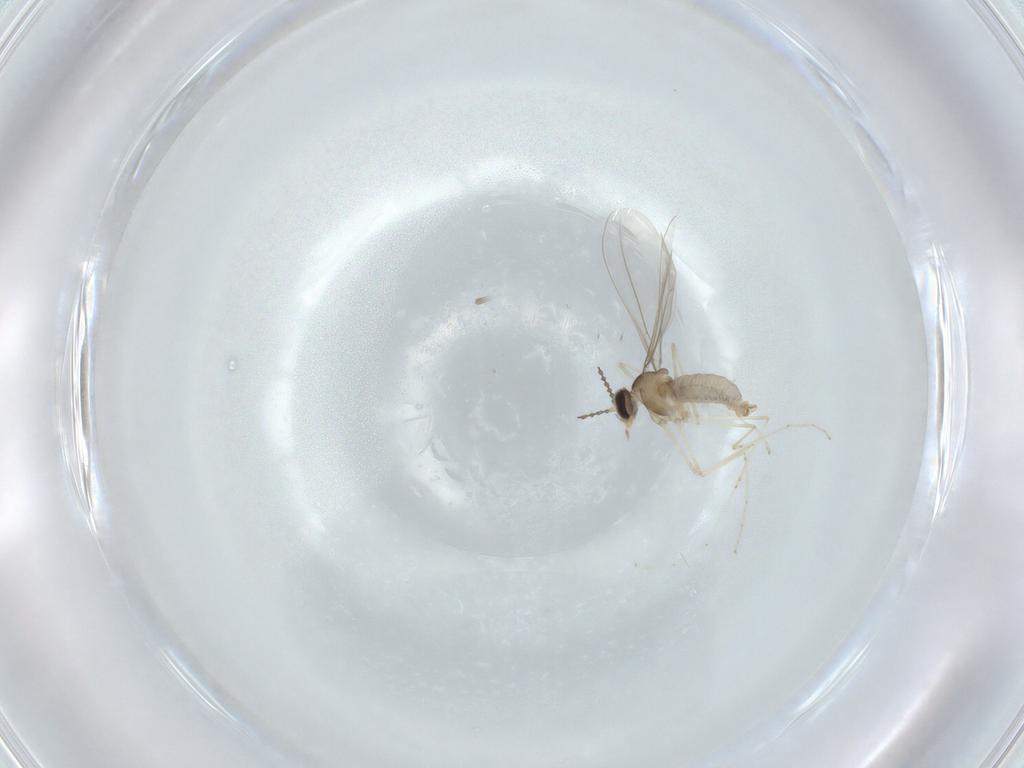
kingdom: Animalia
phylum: Arthropoda
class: Insecta
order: Diptera
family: Cecidomyiidae
